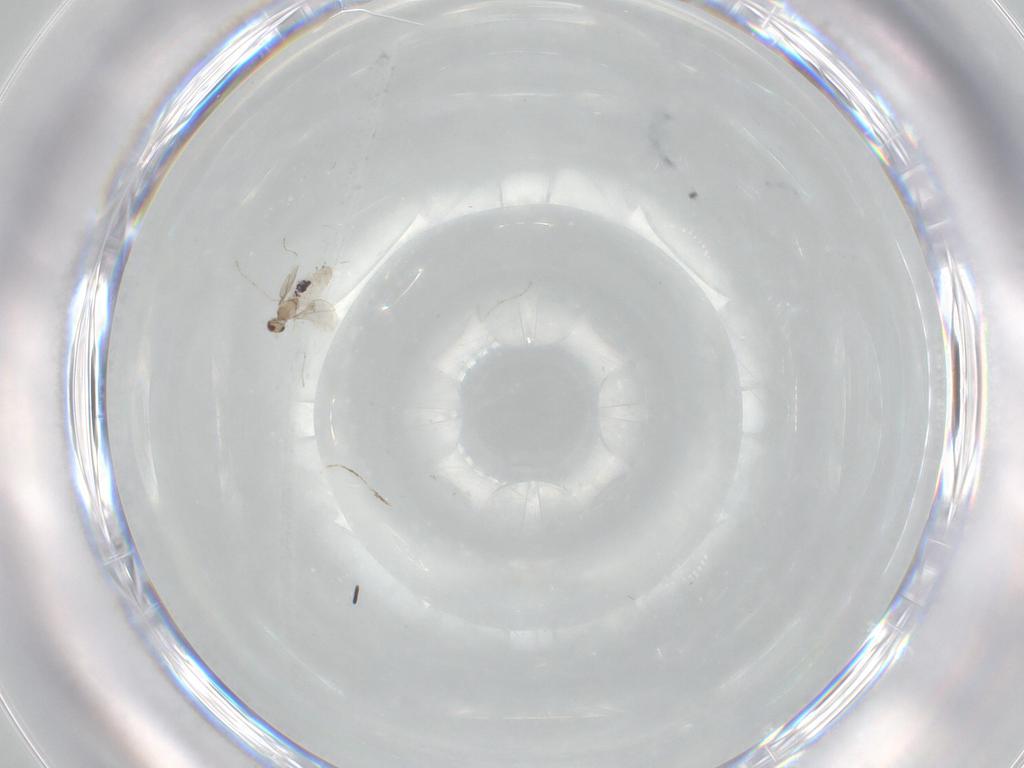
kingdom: Animalia
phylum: Arthropoda
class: Insecta
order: Diptera
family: Cecidomyiidae
